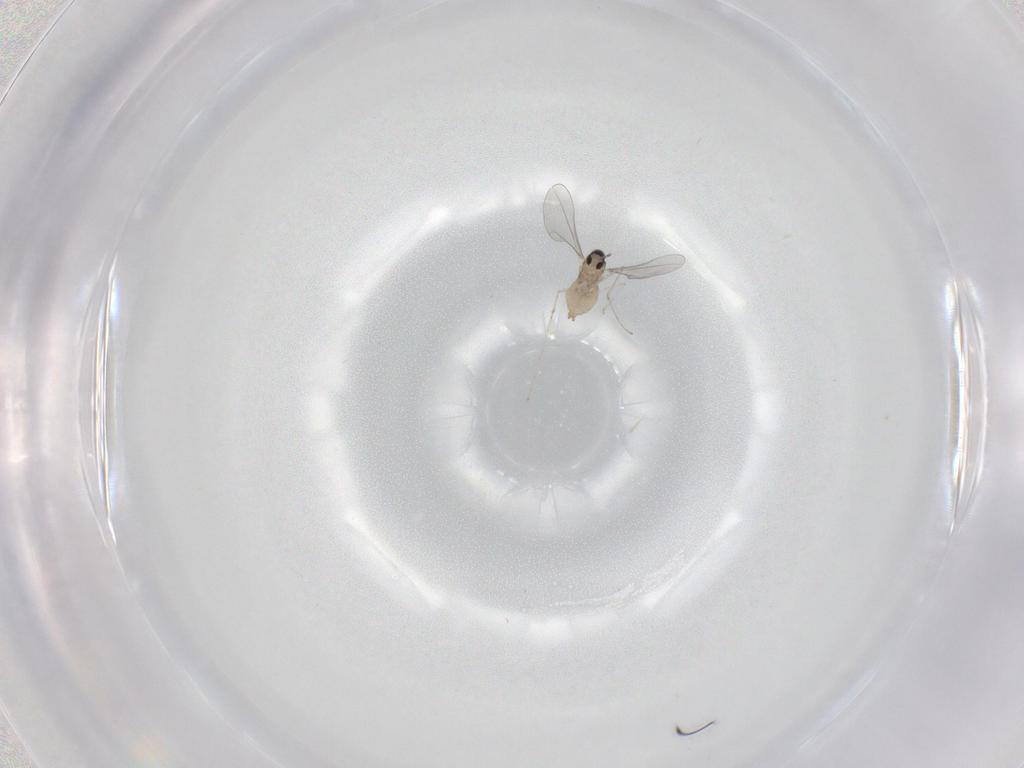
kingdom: Animalia
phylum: Arthropoda
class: Insecta
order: Diptera
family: Cecidomyiidae
